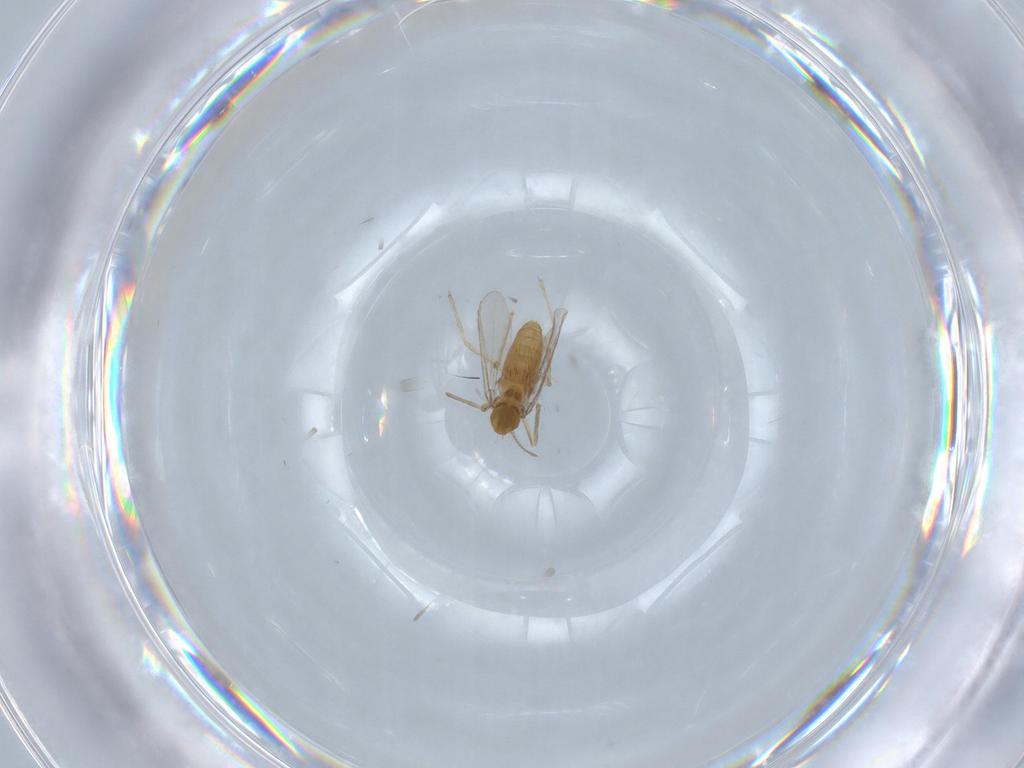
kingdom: Animalia
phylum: Arthropoda
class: Insecta
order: Diptera
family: Chironomidae
